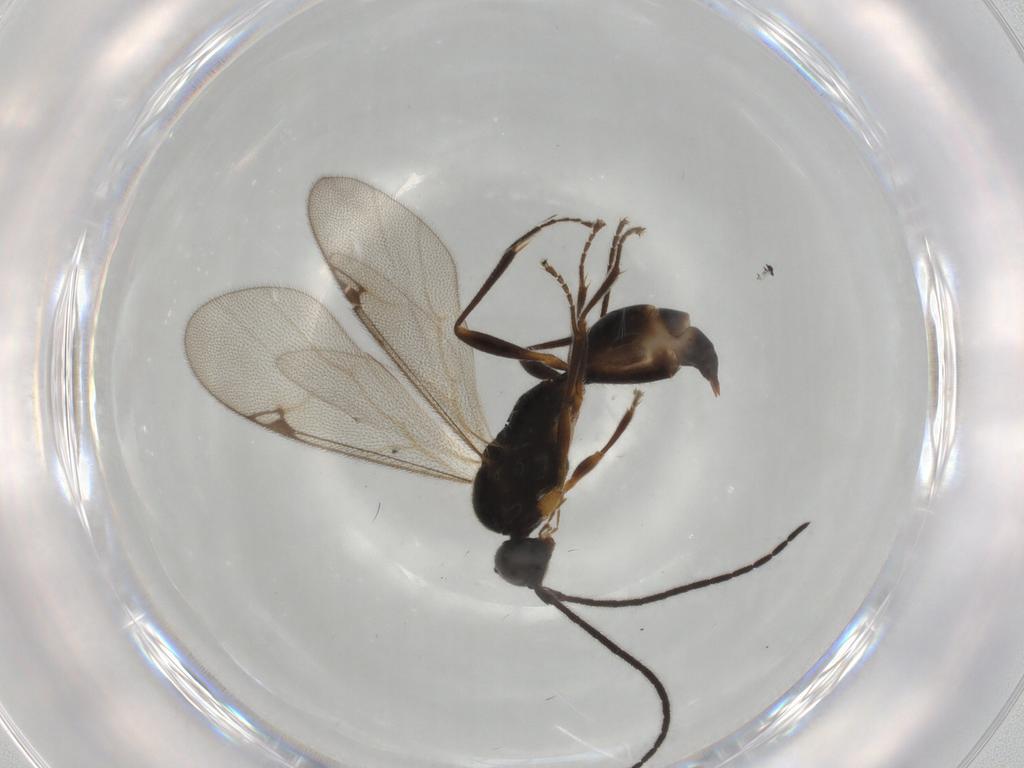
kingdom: Animalia
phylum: Arthropoda
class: Insecta
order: Hymenoptera
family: Proctotrupidae
